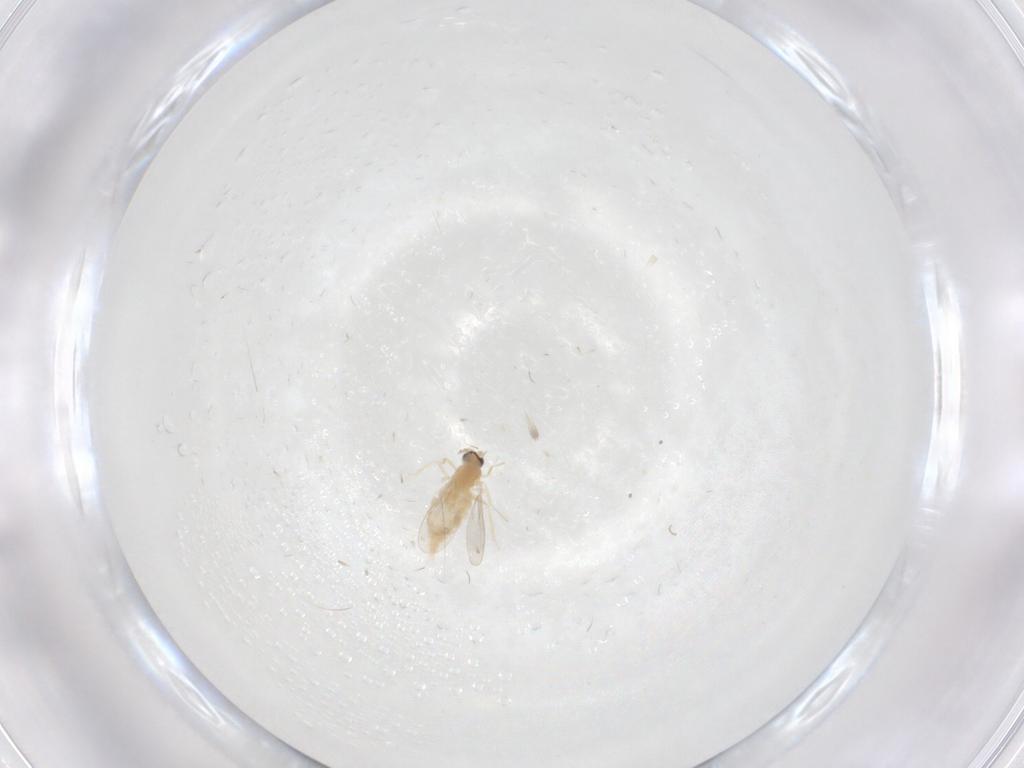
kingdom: Animalia
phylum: Arthropoda
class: Insecta
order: Diptera
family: Cecidomyiidae
